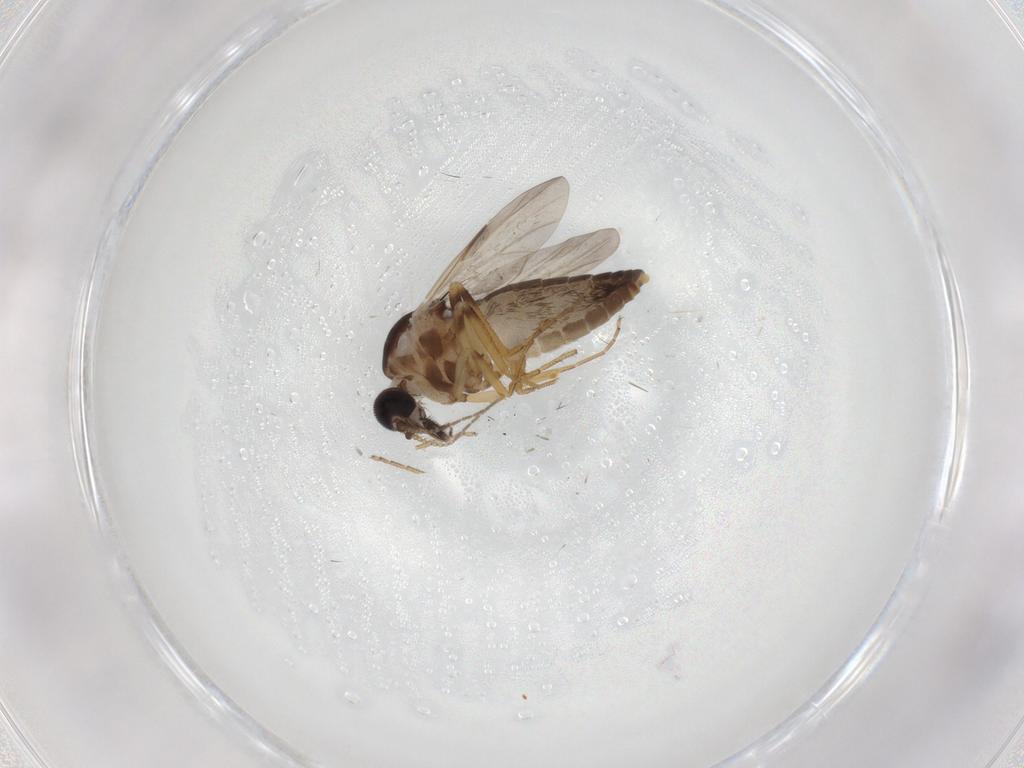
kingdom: Animalia
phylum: Arthropoda
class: Insecta
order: Diptera
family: Ceratopogonidae
